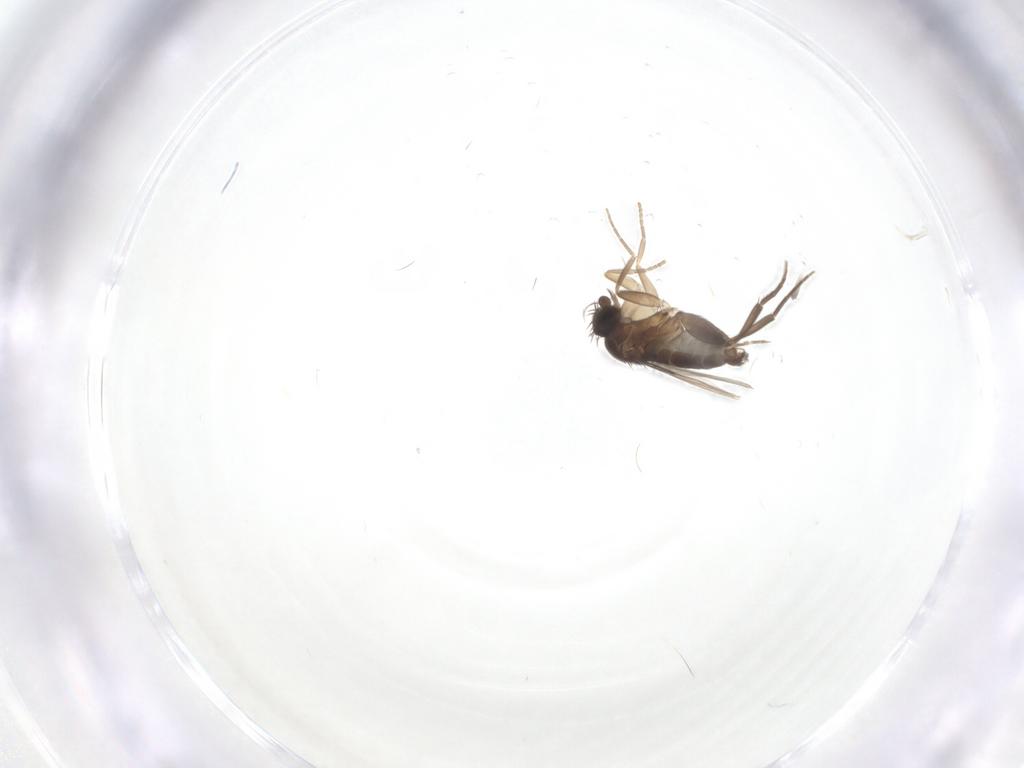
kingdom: Animalia
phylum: Arthropoda
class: Insecta
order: Diptera
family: Phoridae
